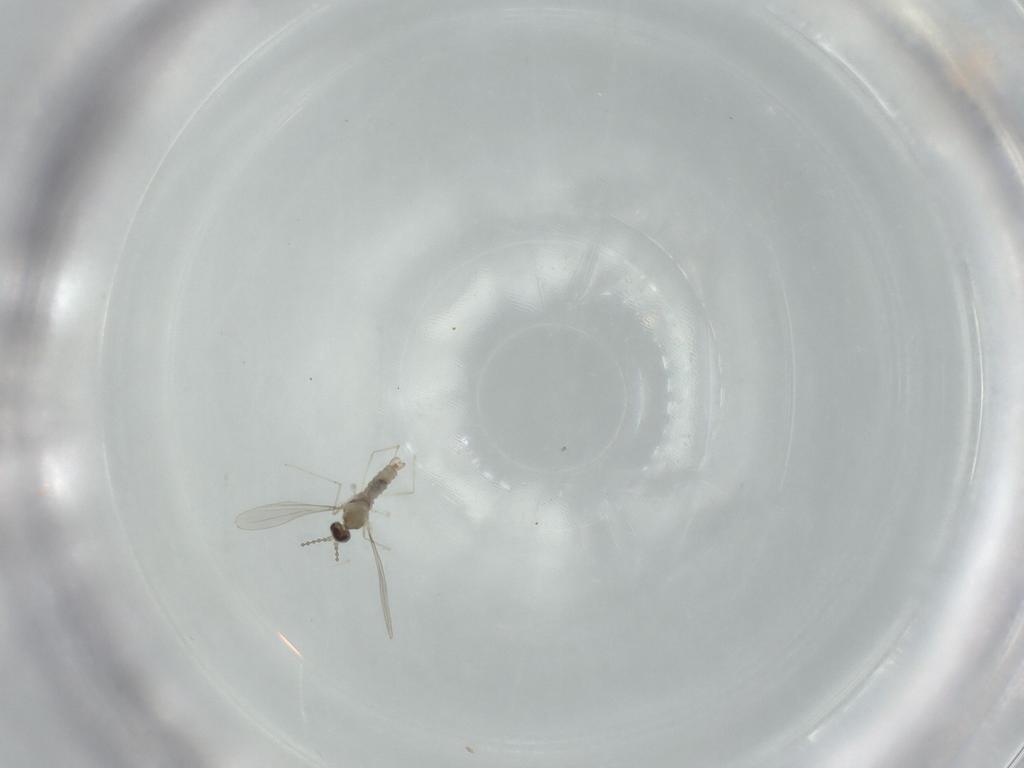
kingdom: Animalia
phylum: Arthropoda
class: Insecta
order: Diptera
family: Cecidomyiidae
